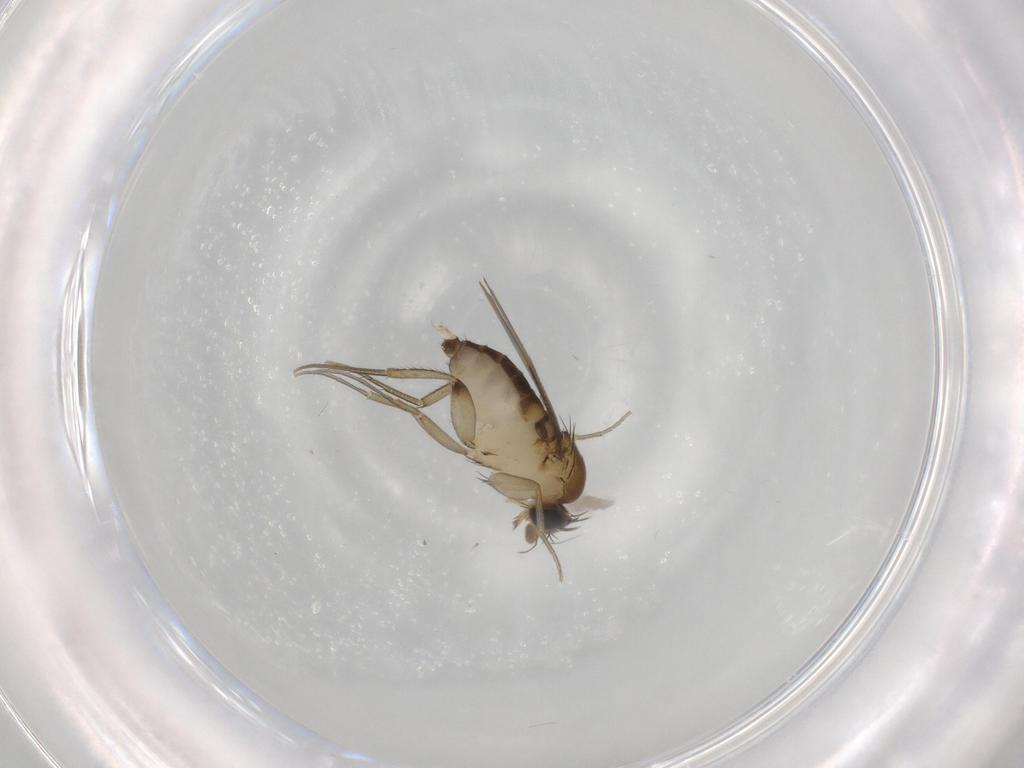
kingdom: Animalia
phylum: Arthropoda
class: Insecta
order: Diptera
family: Phoridae
